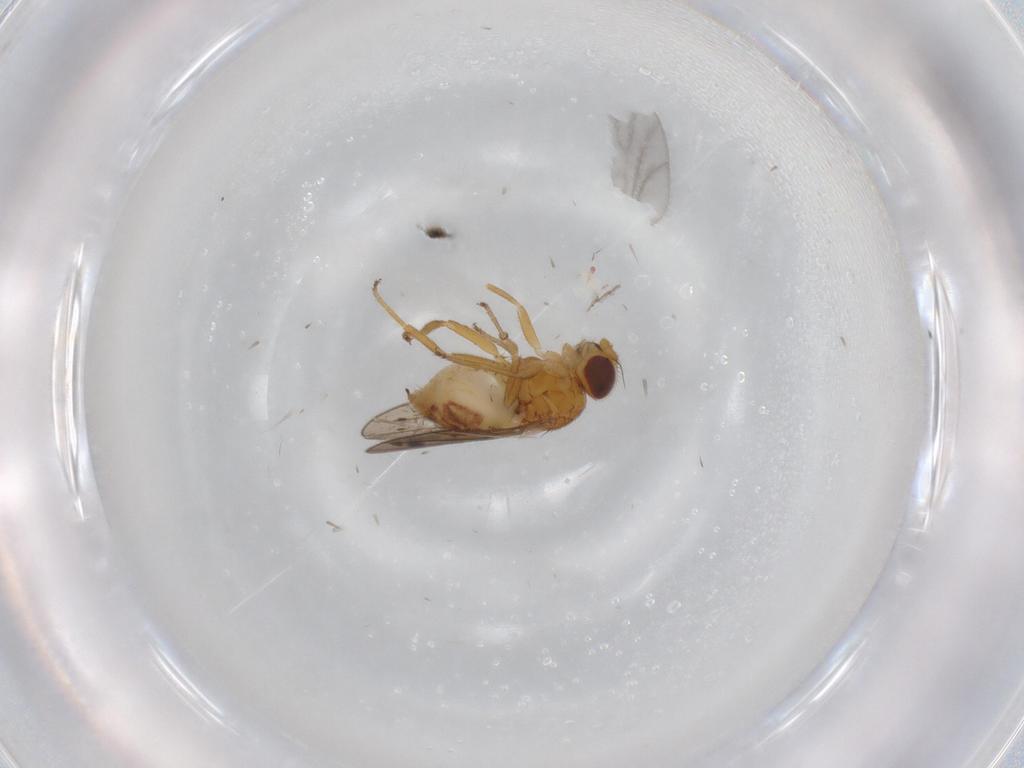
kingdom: Animalia
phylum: Arthropoda
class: Insecta
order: Diptera
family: Chloropidae
